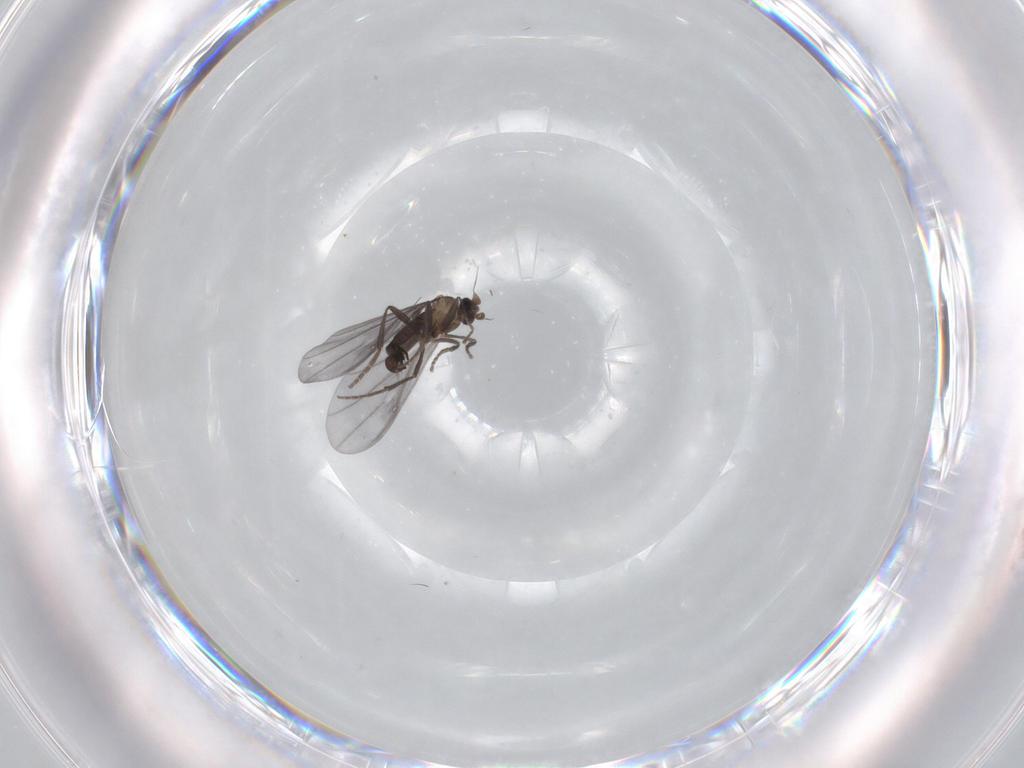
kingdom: Animalia
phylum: Arthropoda
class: Insecta
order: Diptera
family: Phoridae
